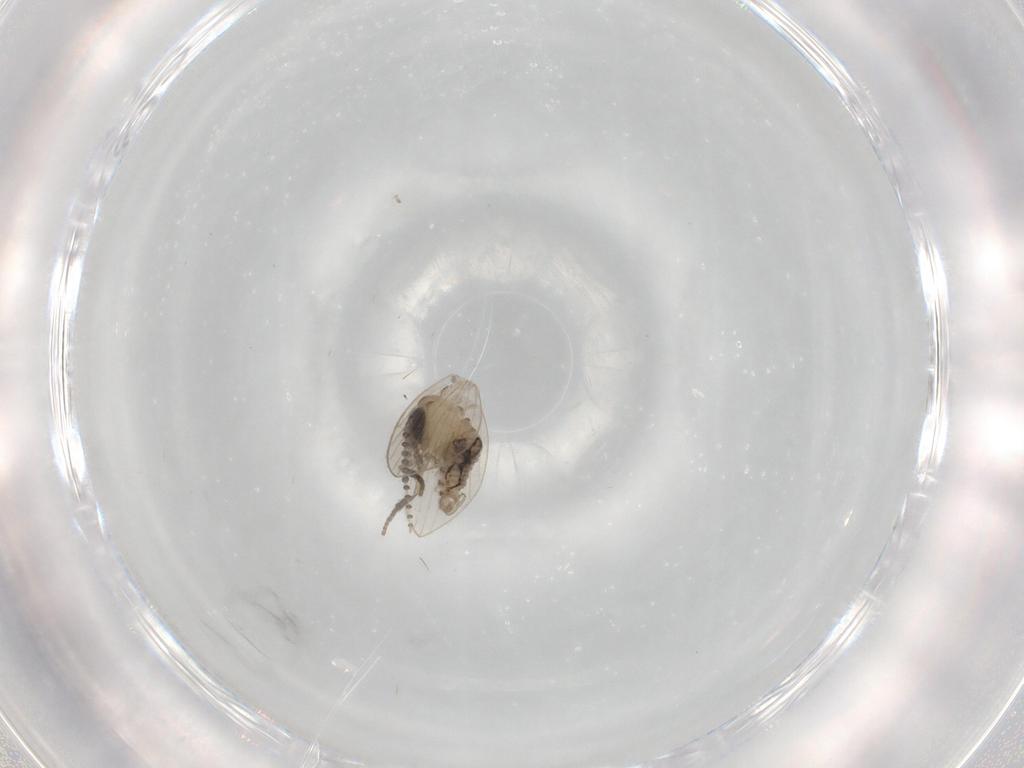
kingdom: Animalia
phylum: Arthropoda
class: Insecta
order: Diptera
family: Psychodidae
